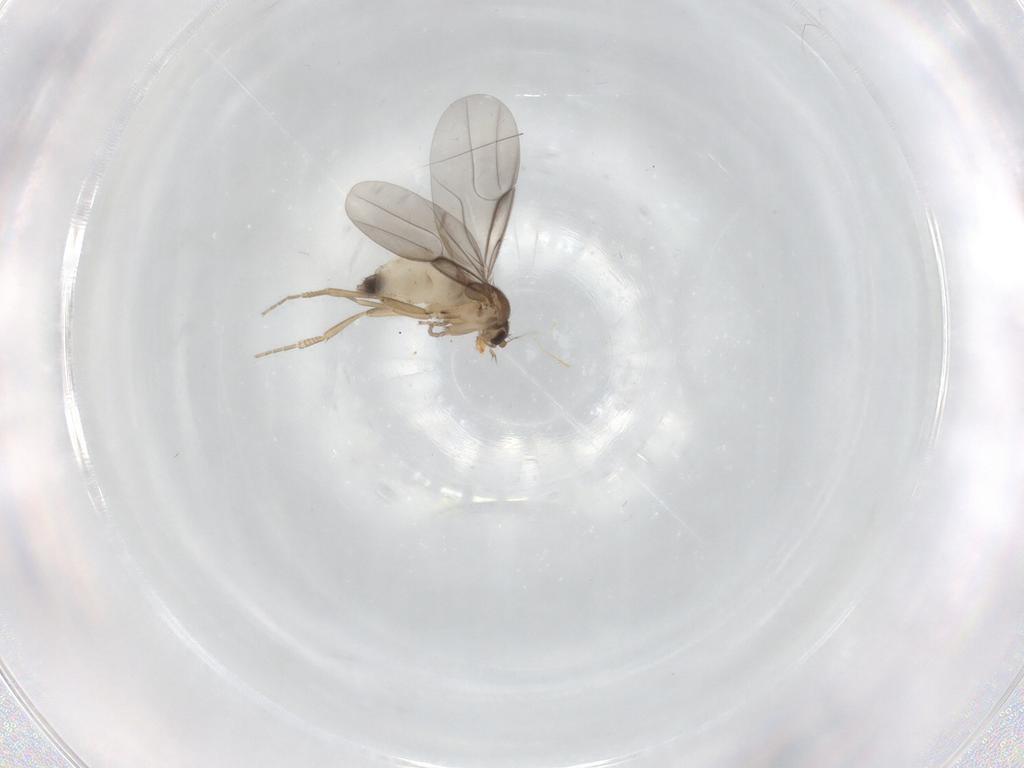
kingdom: Animalia
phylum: Arthropoda
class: Insecta
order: Diptera
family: Phoridae
